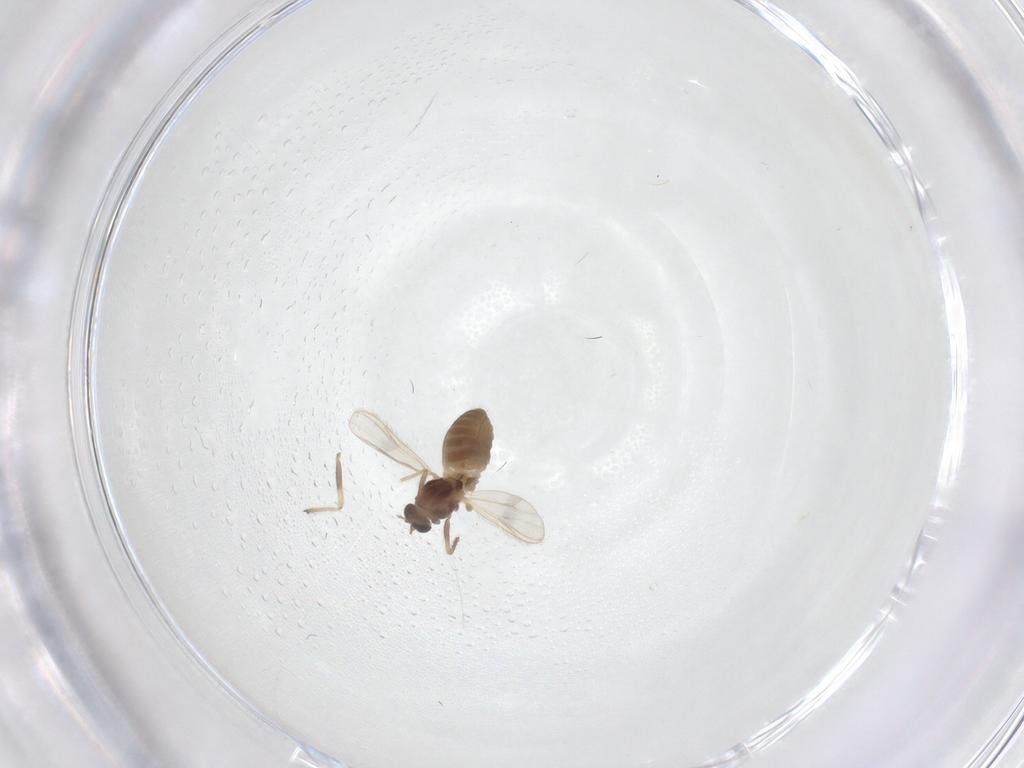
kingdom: Animalia
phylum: Arthropoda
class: Insecta
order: Diptera
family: Chironomidae
